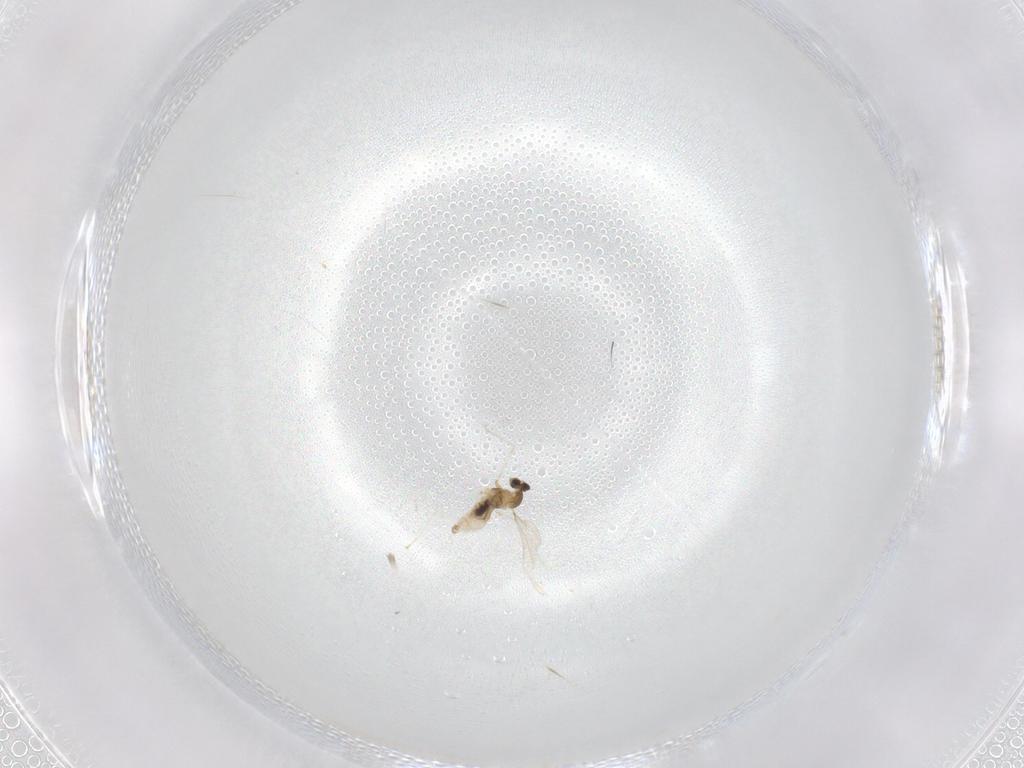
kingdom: Animalia
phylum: Arthropoda
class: Insecta
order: Diptera
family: Cecidomyiidae
